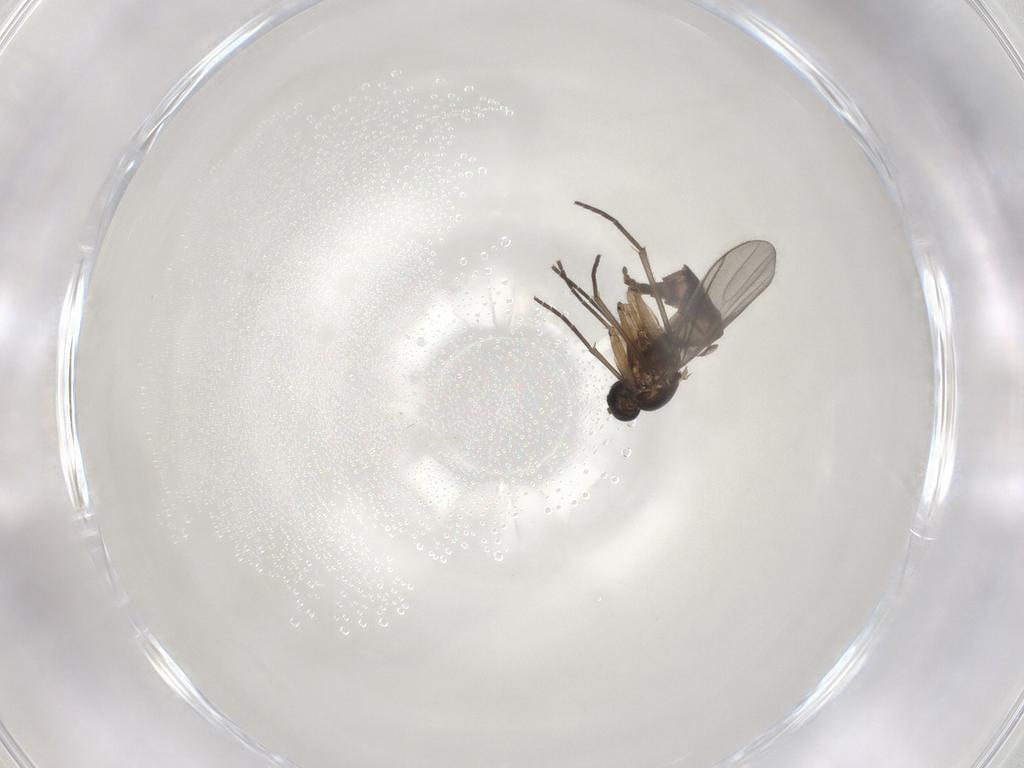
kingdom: Animalia
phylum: Arthropoda
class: Insecta
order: Diptera
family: Sciaridae
